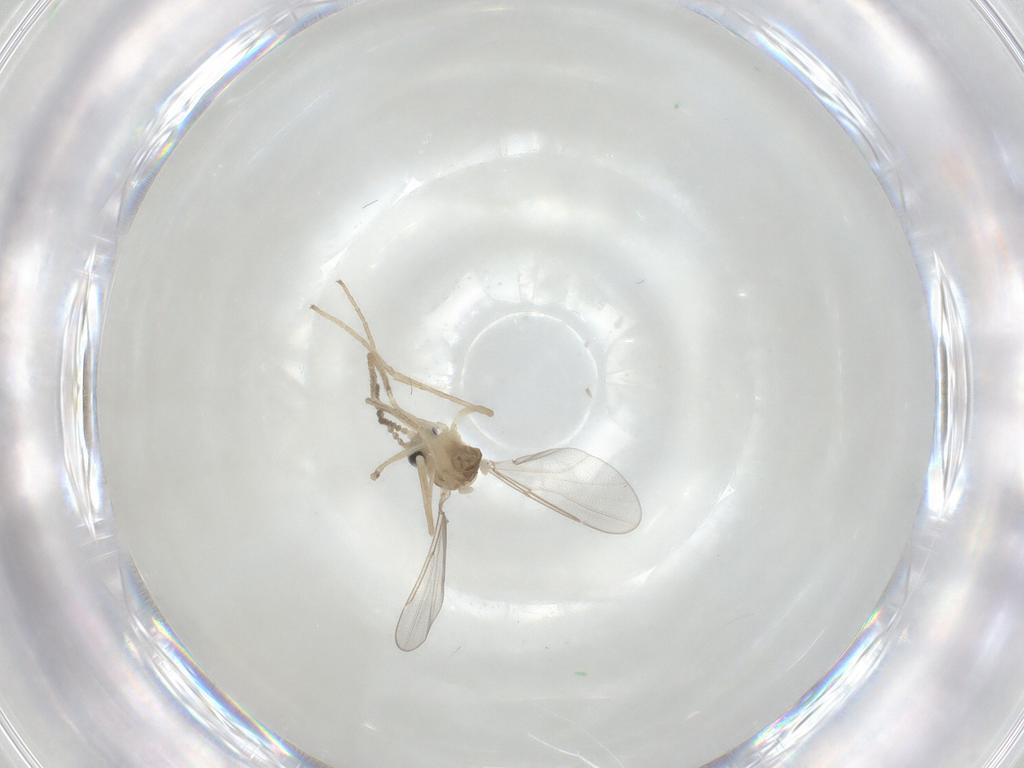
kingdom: Animalia
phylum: Arthropoda
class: Insecta
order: Diptera
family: Cecidomyiidae
